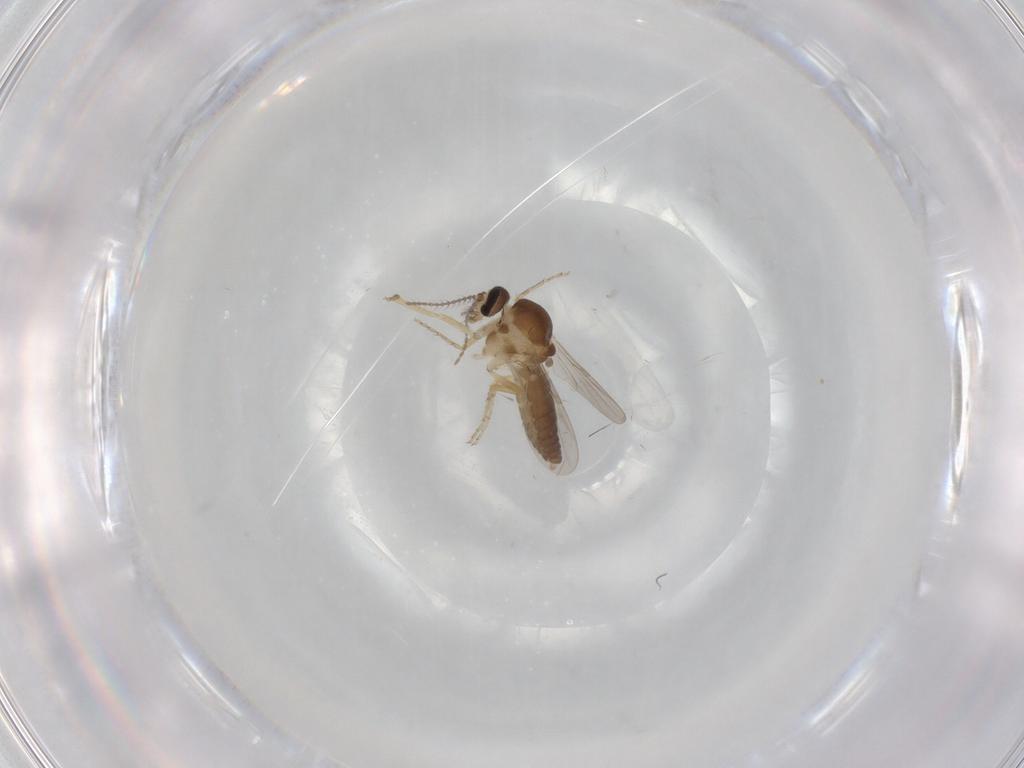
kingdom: Animalia
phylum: Arthropoda
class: Insecta
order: Diptera
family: Ceratopogonidae
